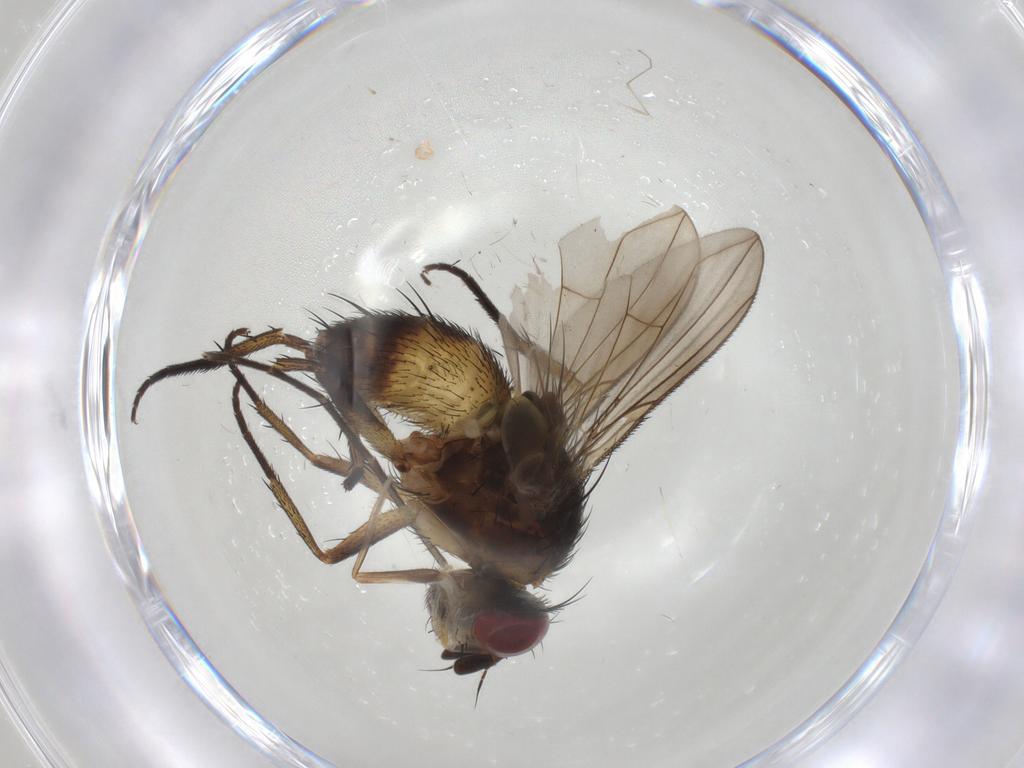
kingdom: Animalia
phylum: Arthropoda
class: Insecta
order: Diptera
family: Tachinidae
